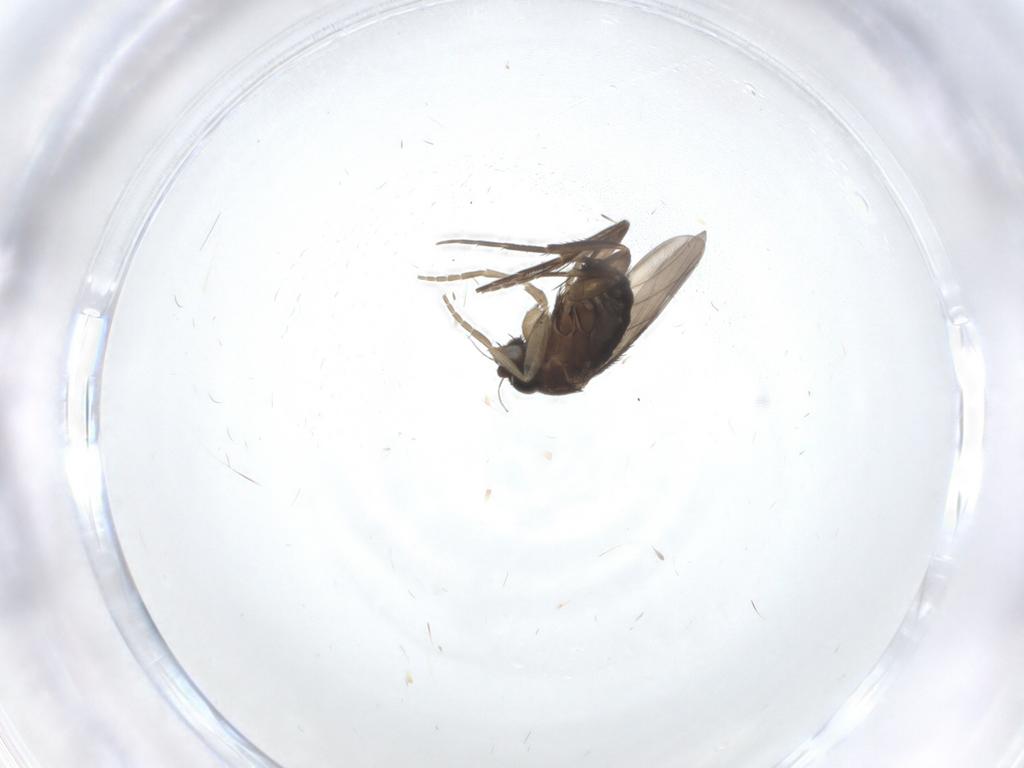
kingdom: Animalia
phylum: Arthropoda
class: Insecta
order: Diptera
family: Phoridae
